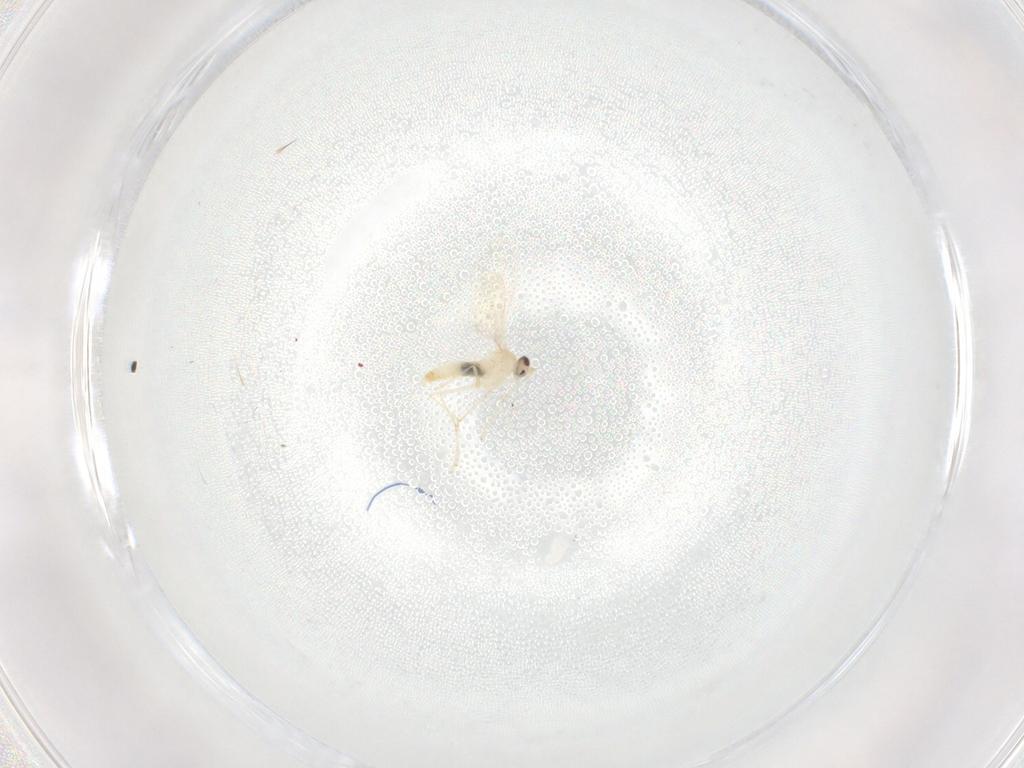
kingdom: Animalia
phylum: Arthropoda
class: Insecta
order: Diptera
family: Cecidomyiidae
